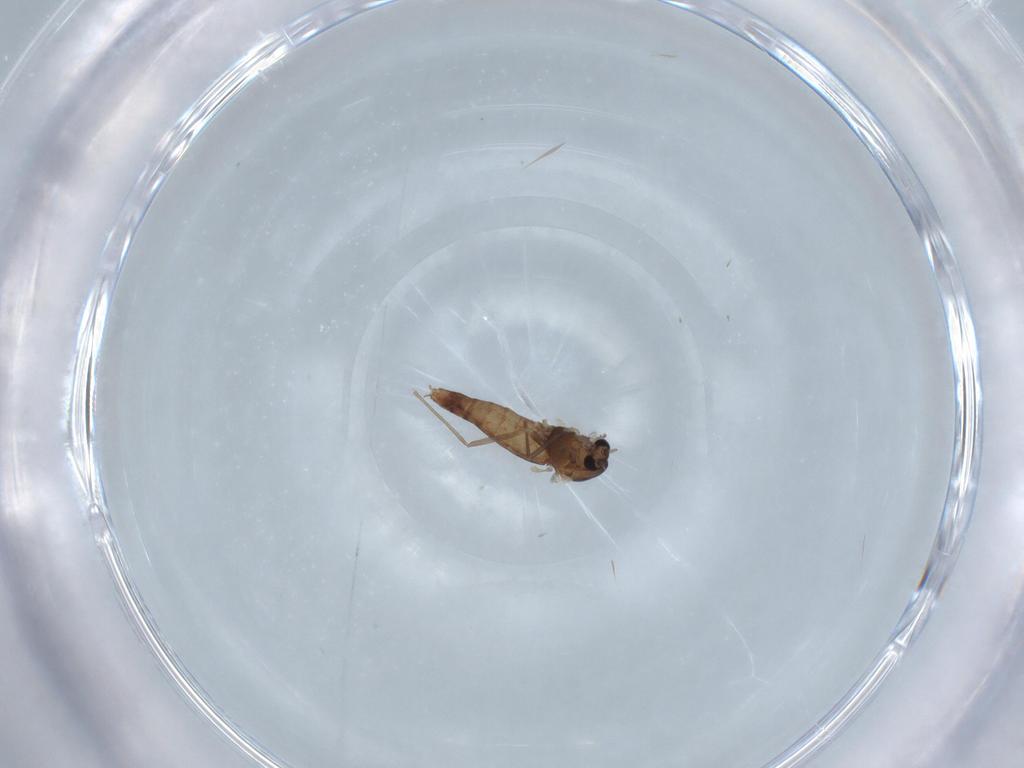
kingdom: Animalia
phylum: Arthropoda
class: Insecta
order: Diptera
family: Chironomidae
